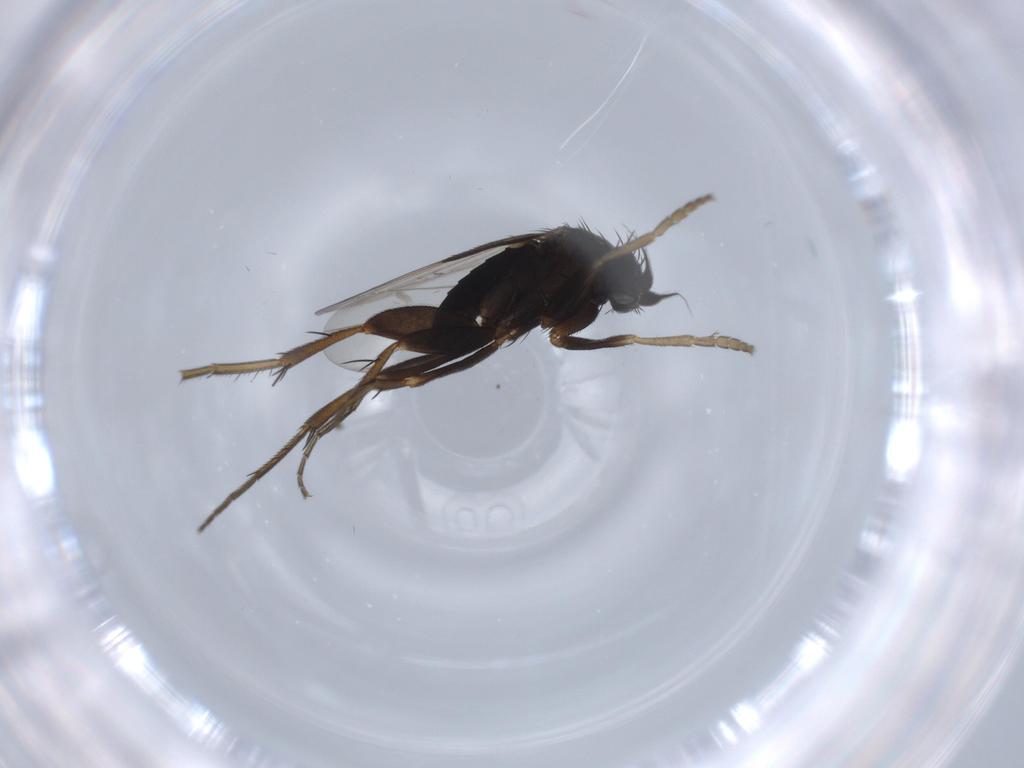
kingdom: Animalia
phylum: Arthropoda
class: Insecta
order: Diptera
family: Phoridae
